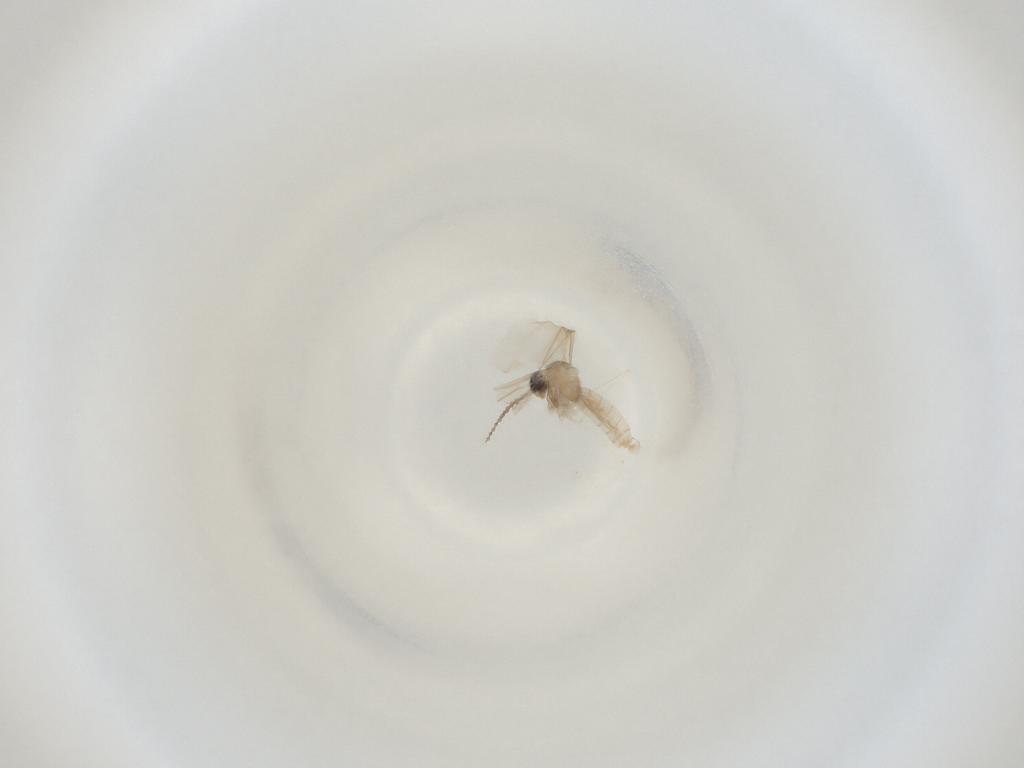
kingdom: Animalia
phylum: Arthropoda
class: Insecta
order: Diptera
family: Cecidomyiidae
